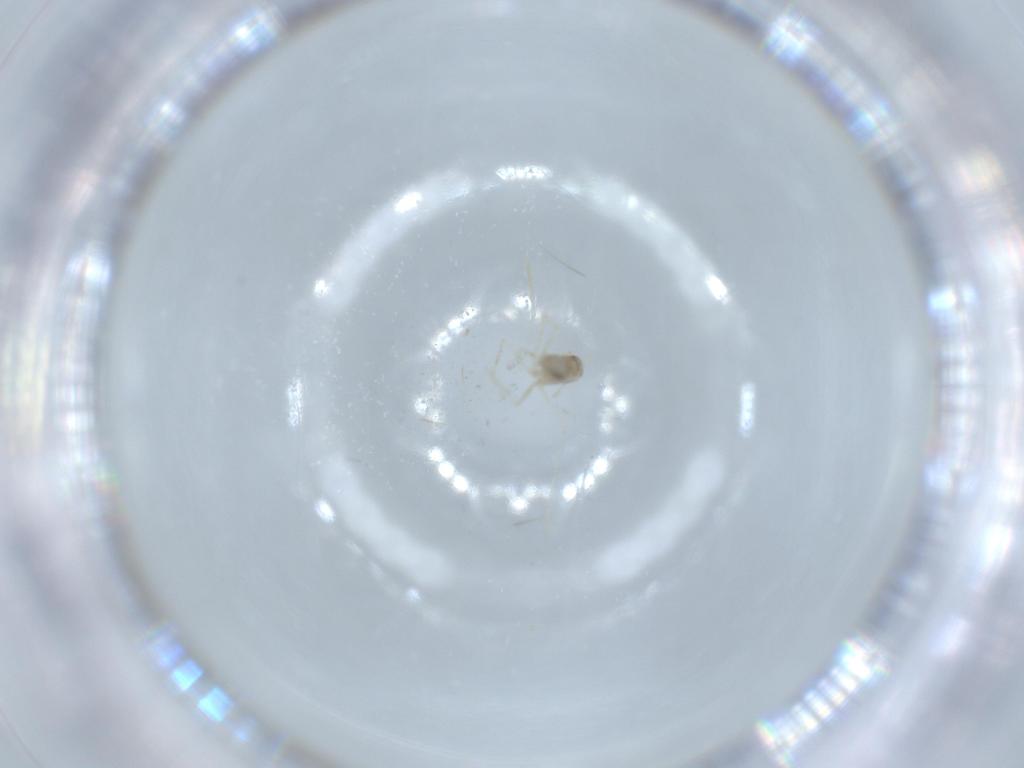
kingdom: Animalia
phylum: Arthropoda
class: Insecta
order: Diptera
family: Cecidomyiidae
